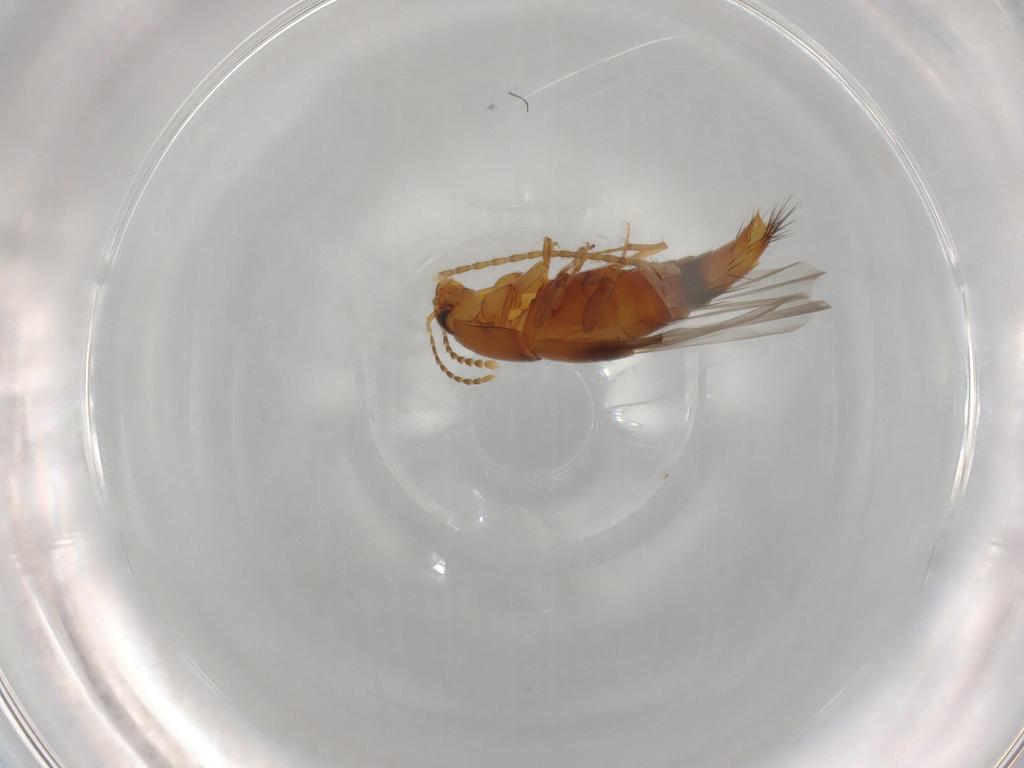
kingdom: Animalia
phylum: Arthropoda
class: Insecta
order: Coleoptera
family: Staphylinidae
